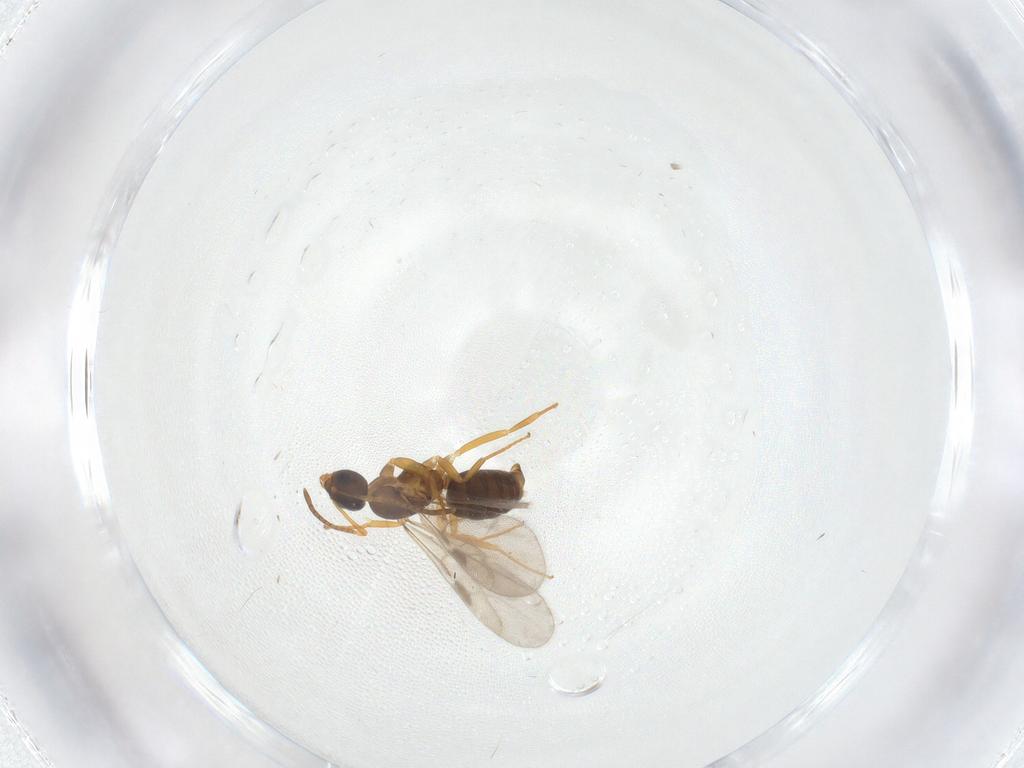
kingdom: Animalia
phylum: Arthropoda
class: Insecta
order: Hymenoptera
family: Formicidae
